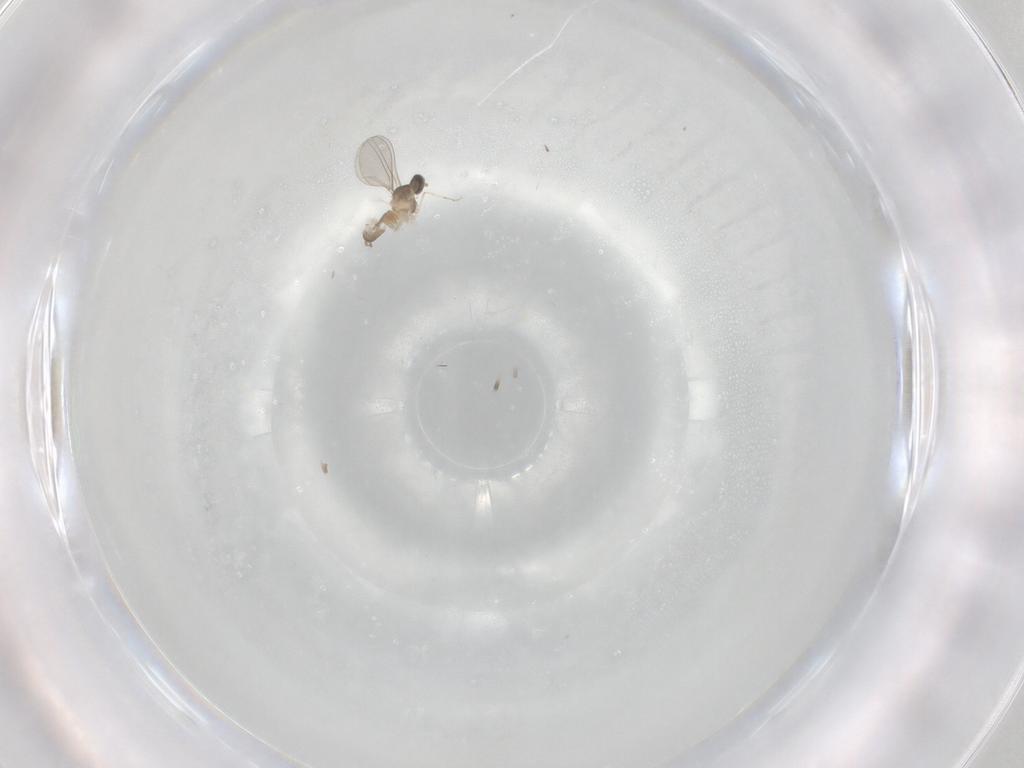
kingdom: Animalia
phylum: Arthropoda
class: Insecta
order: Diptera
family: Cecidomyiidae
